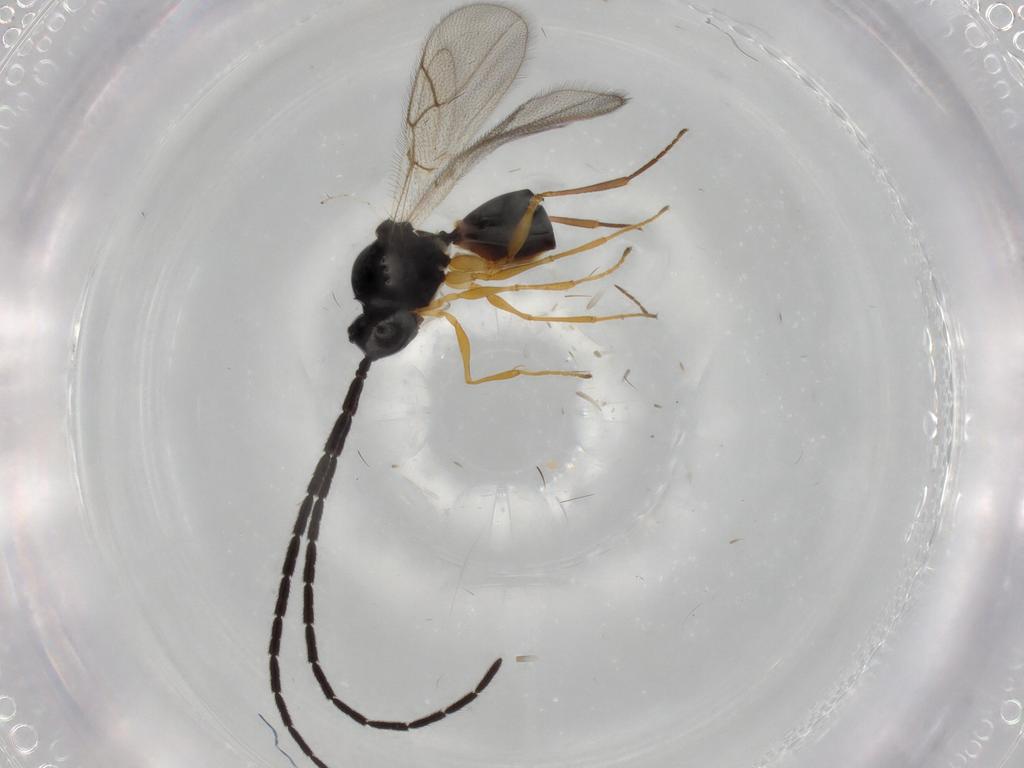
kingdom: Animalia
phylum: Arthropoda
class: Insecta
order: Hymenoptera
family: Figitidae
